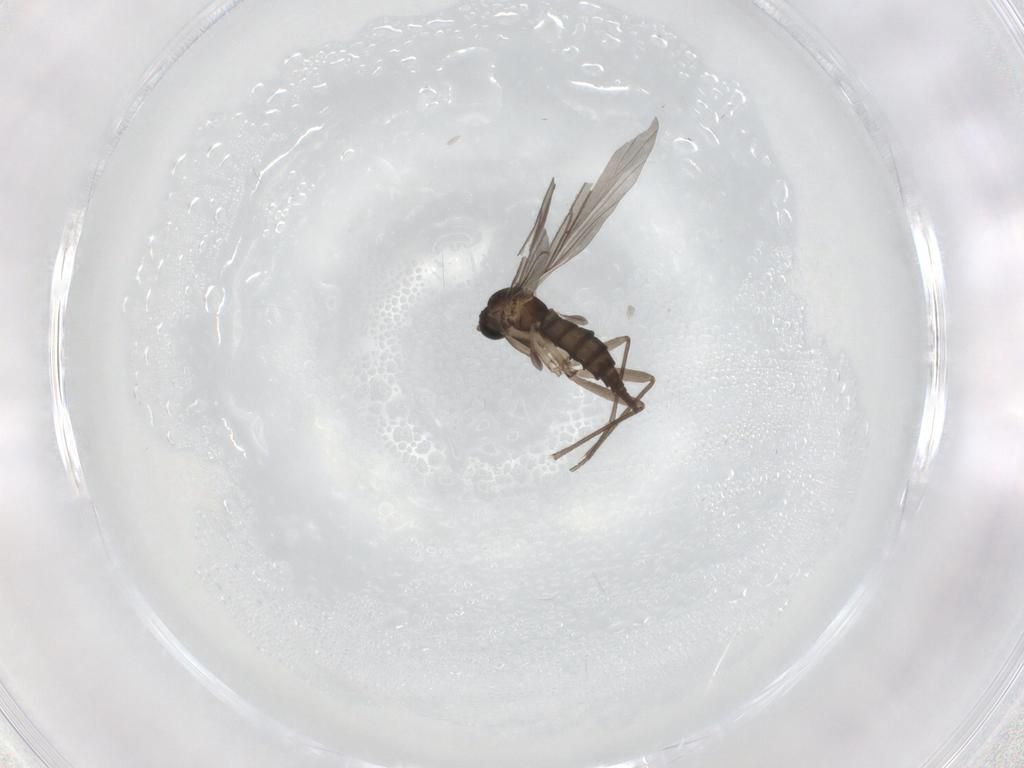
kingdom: Animalia
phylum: Arthropoda
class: Insecta
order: Diptera
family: Sciaridae
